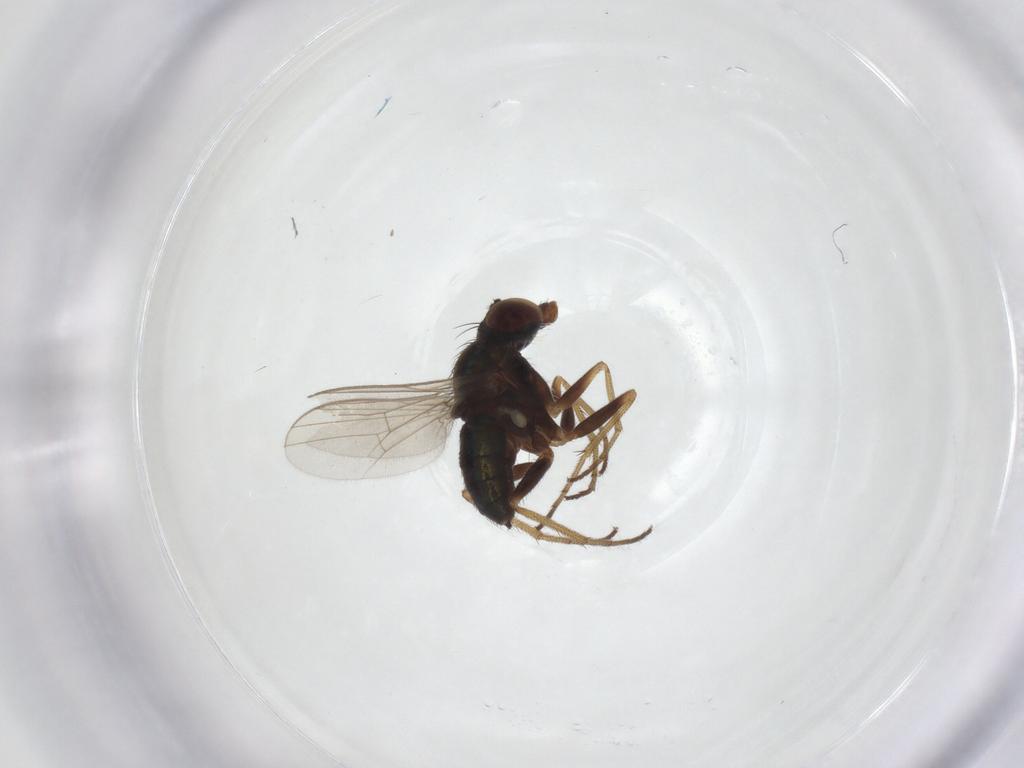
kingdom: Animalia
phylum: Arthropoda
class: Insecta
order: Diptera
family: Dolichopodidae
